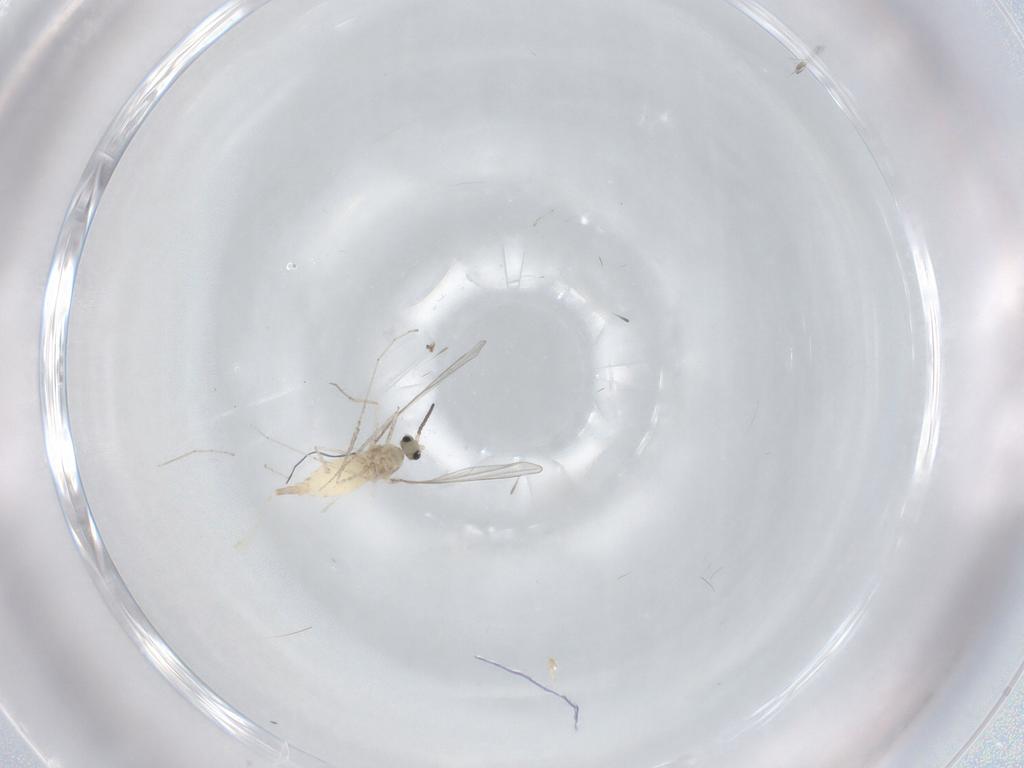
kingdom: Animalia
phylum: Arthropoda
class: Insecta
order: Diptera
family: Cecidomyiidae
